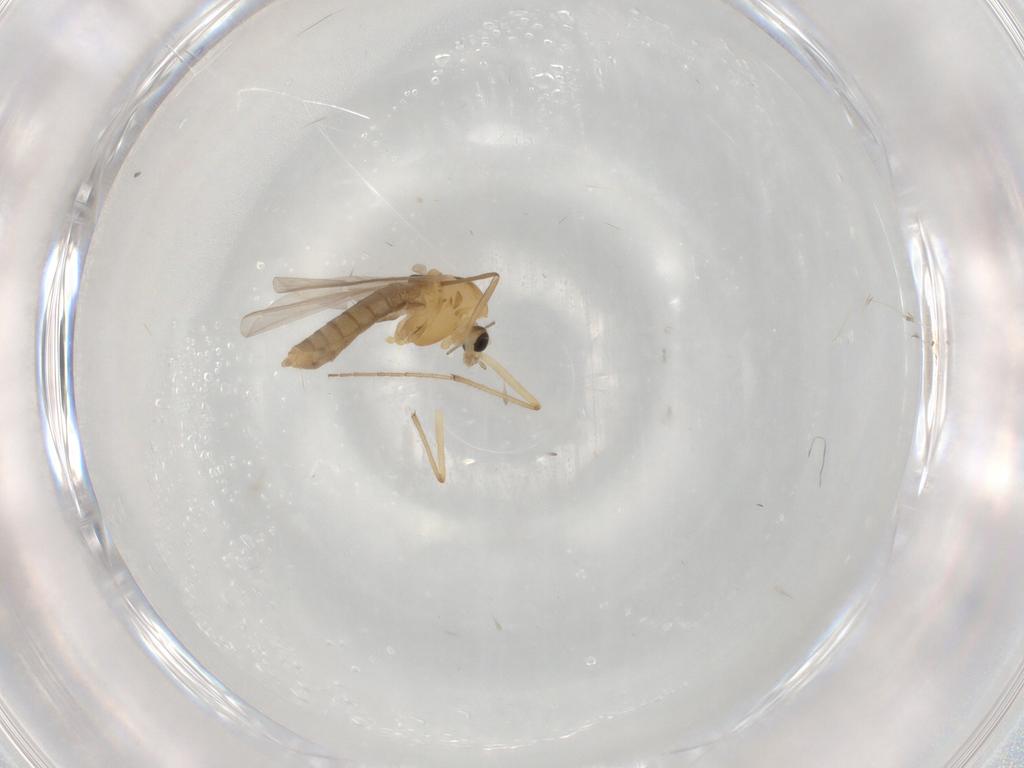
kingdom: Animalia
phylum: Arthropoda
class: Insecta
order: Diptera
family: Chironomidae
